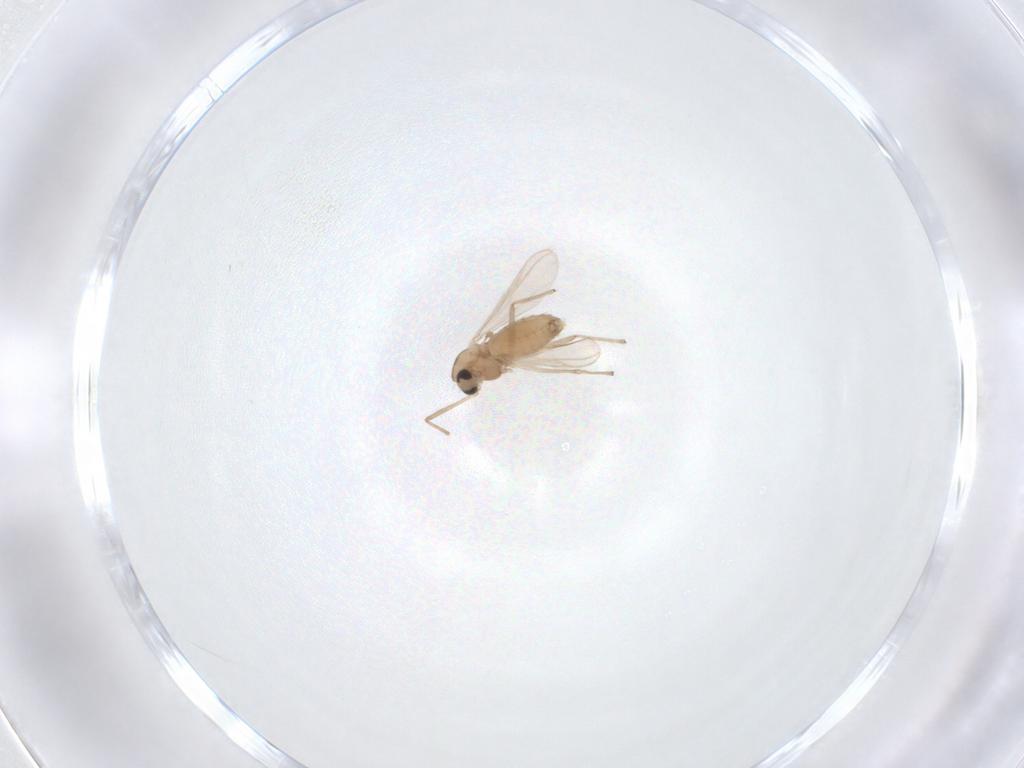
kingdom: Animalia
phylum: Arthropoda
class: Insecta
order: Diptera
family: Chironomidae
